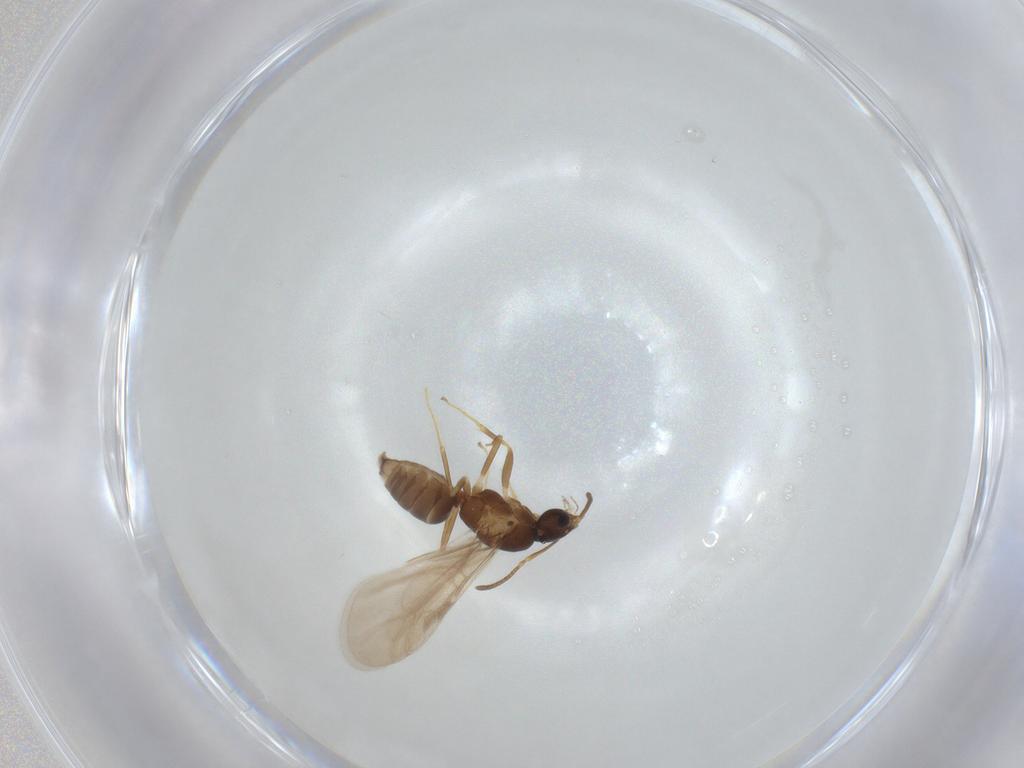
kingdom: Animalia
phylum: Arthropoda
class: Insecta
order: Hymenoptera
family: Formicidae
